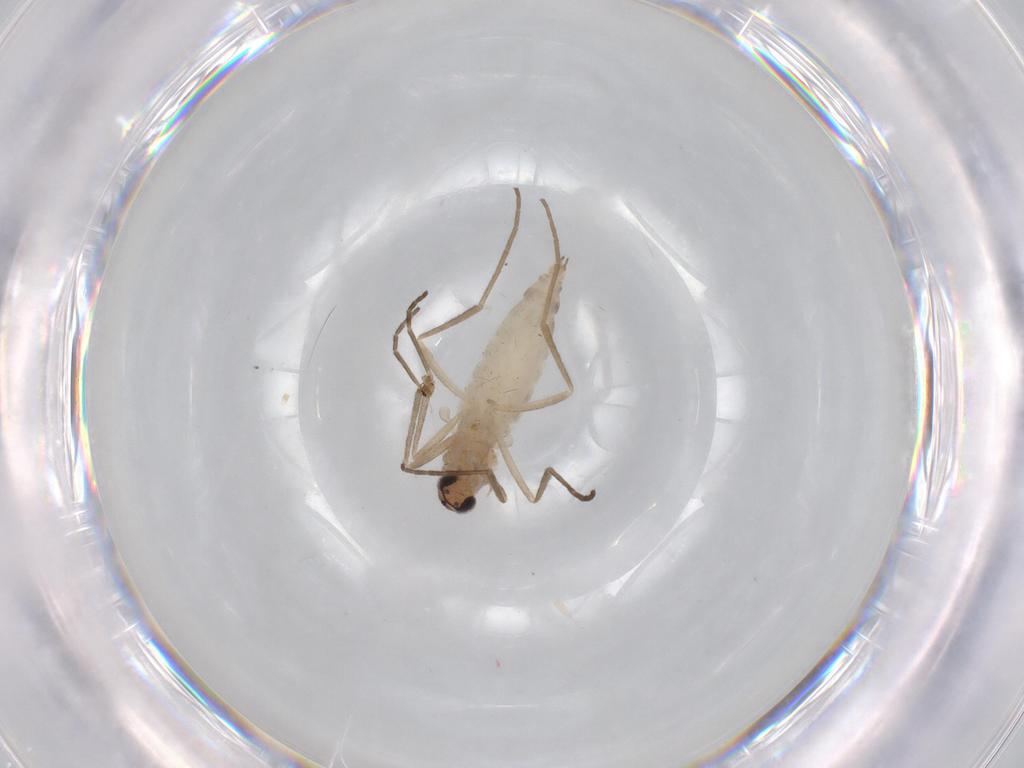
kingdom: Animalia
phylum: Arthropoda
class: Insecta
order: Diptera
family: Cecidomyiidae
